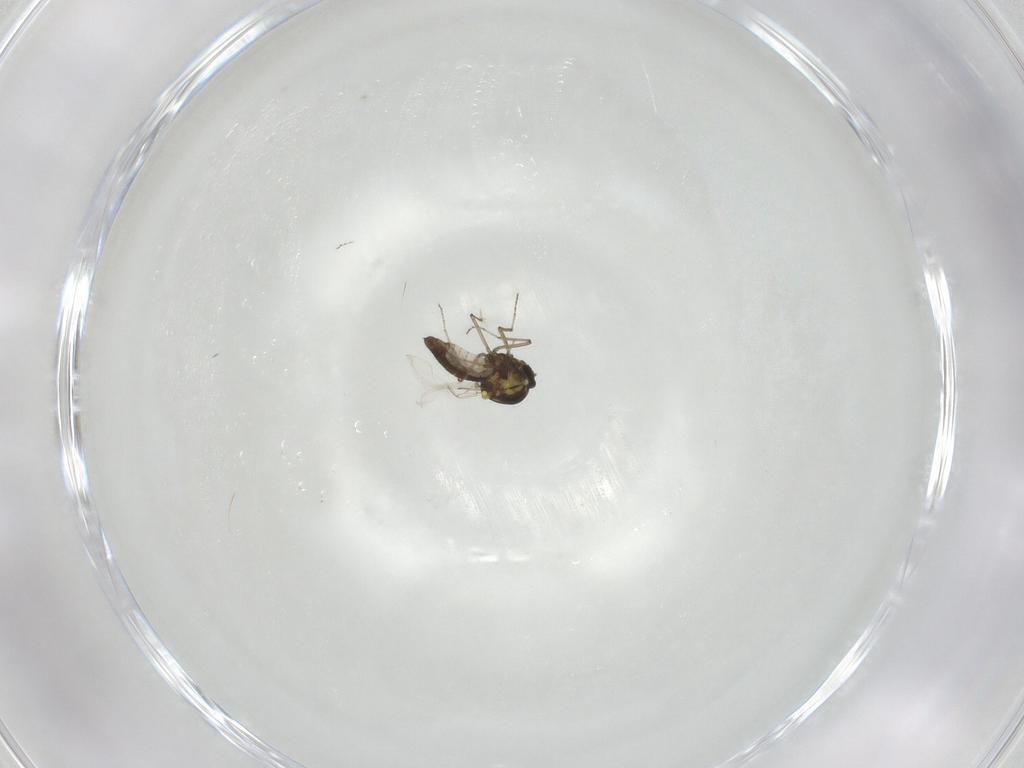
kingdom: Animalia
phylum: Arthropoda
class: Insecta
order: Diptera
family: Ceratopogonidae
